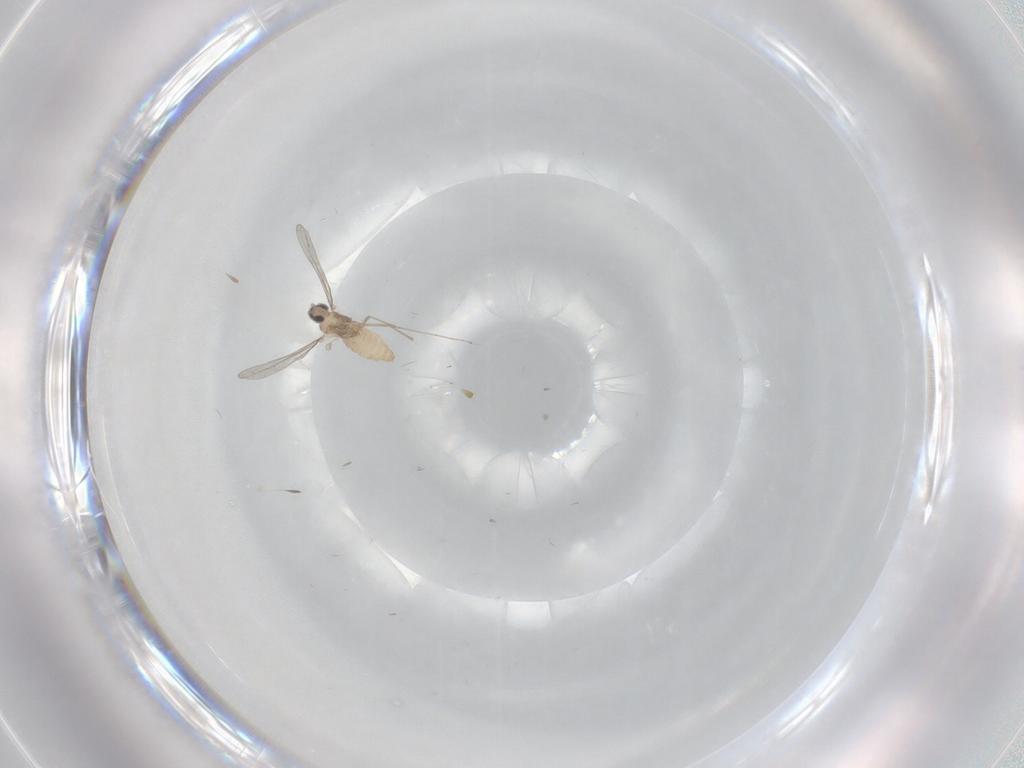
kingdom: Animalia
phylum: Arthropoda
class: Insecta
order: Diptera
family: Cecidomyiidae
